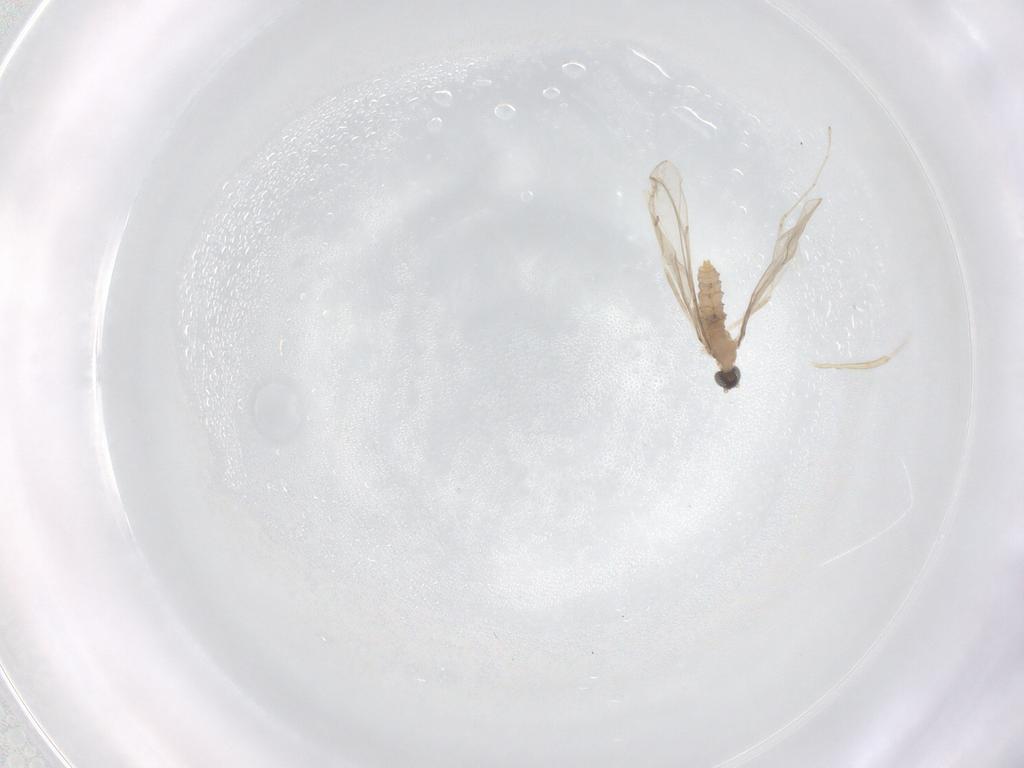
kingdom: Animalia
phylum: Arthropoda
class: Insecta
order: Diptera
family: Cecidomyiidae
